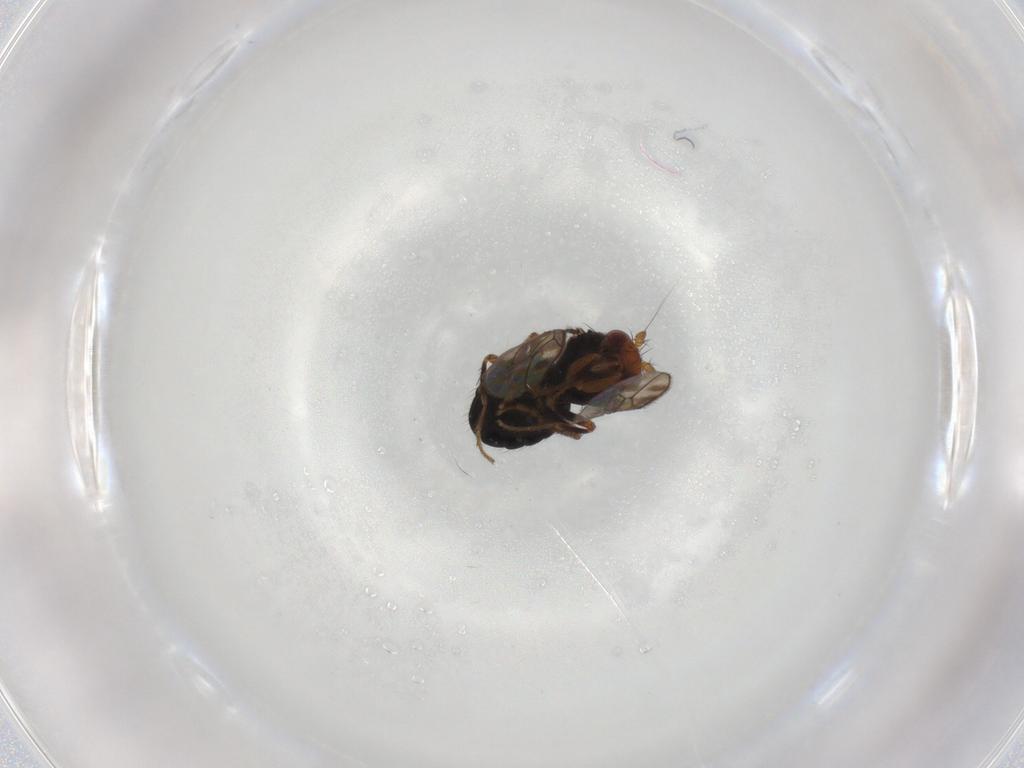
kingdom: Animalia
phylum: Arthropoda
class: Insecta
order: Diptera
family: Sphaeroceridae
